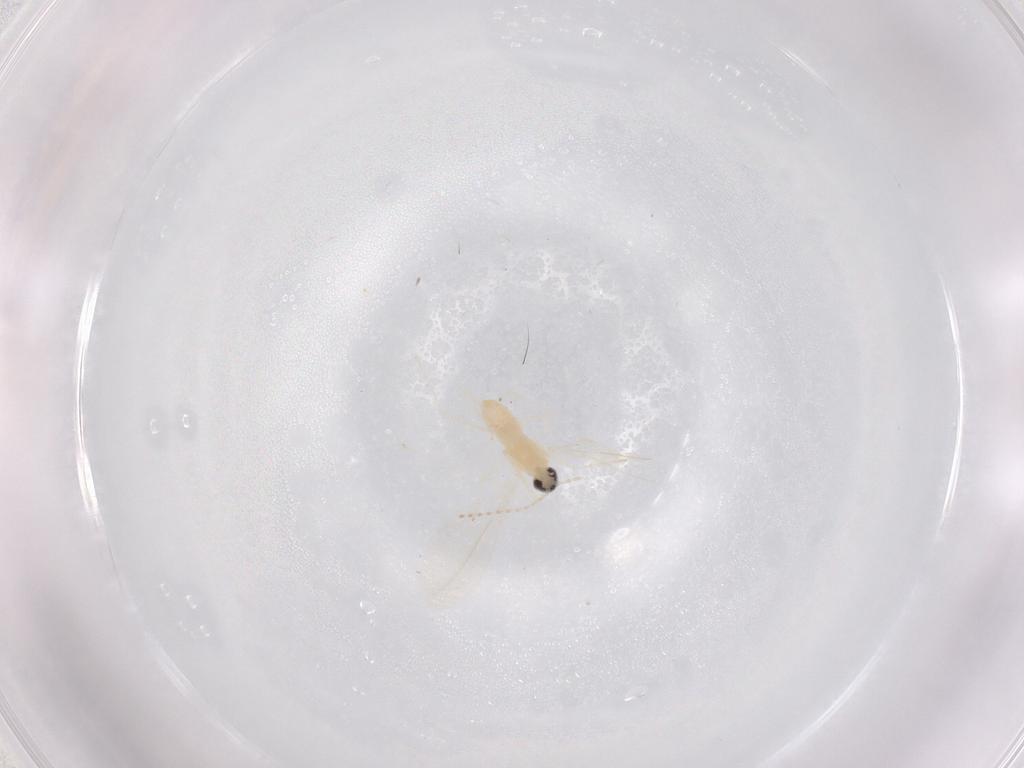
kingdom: Animalia
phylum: Arthropoda
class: Insecta
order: Diptera
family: Cecidomyiidae
